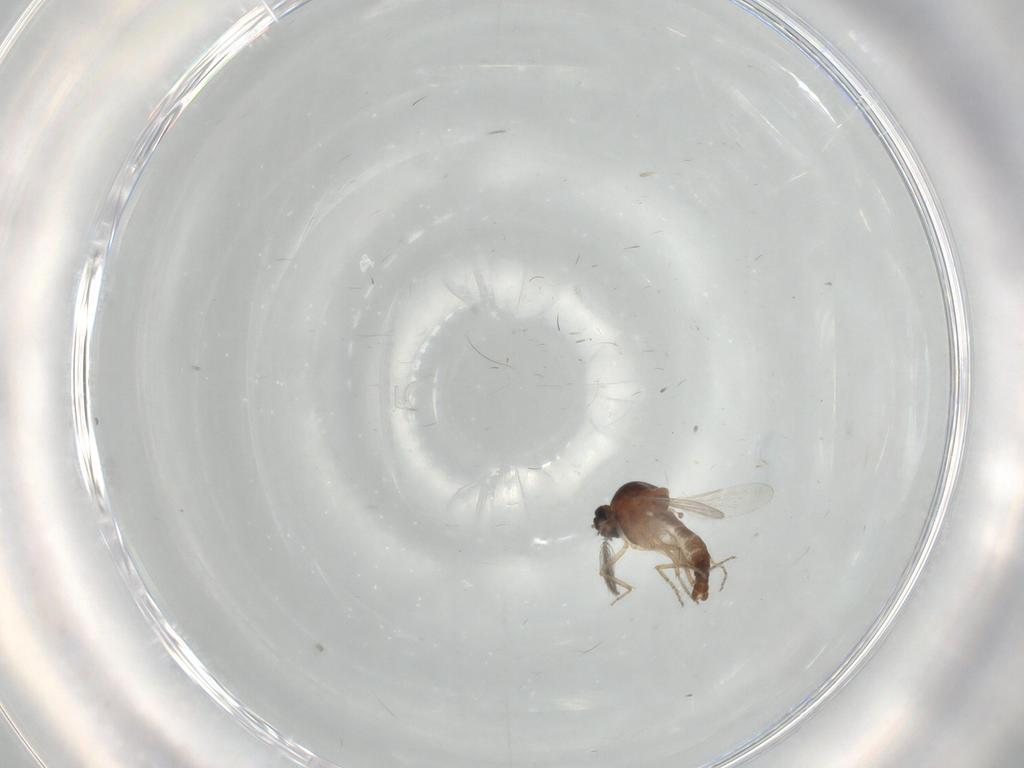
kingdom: Animalia
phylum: Arthropoda
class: Insecta
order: Diptera
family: Ceratopogonidae
